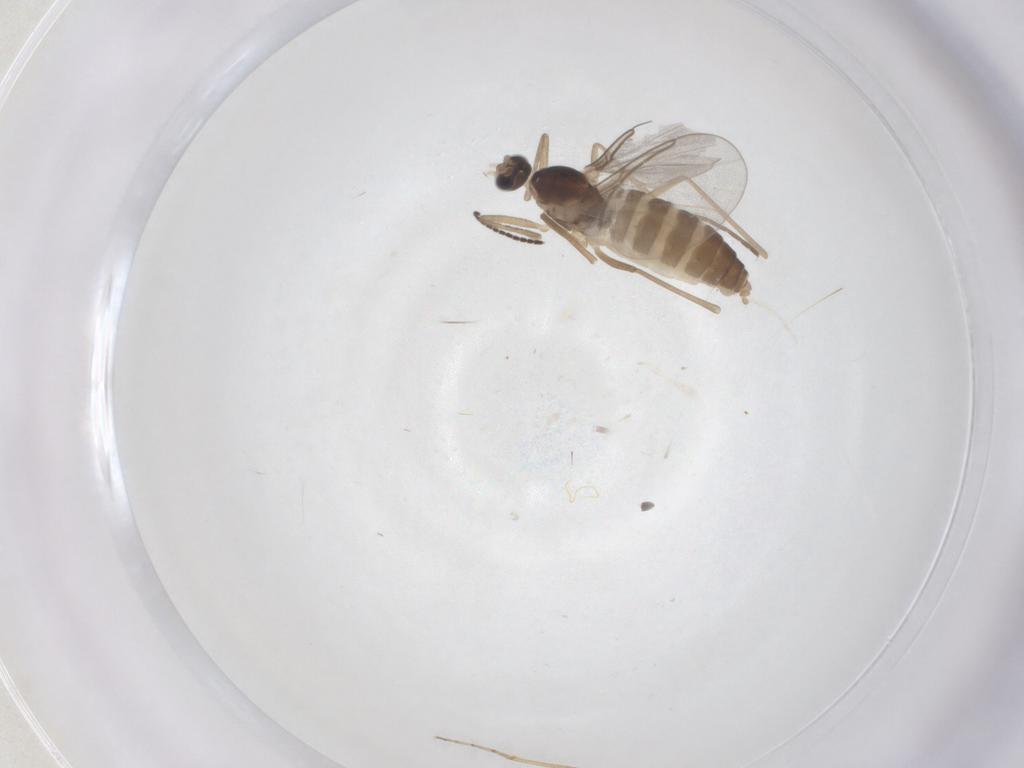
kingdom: Animalia
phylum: Arthropoda
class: Insecta
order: Diptera
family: Cecidomyiidae
